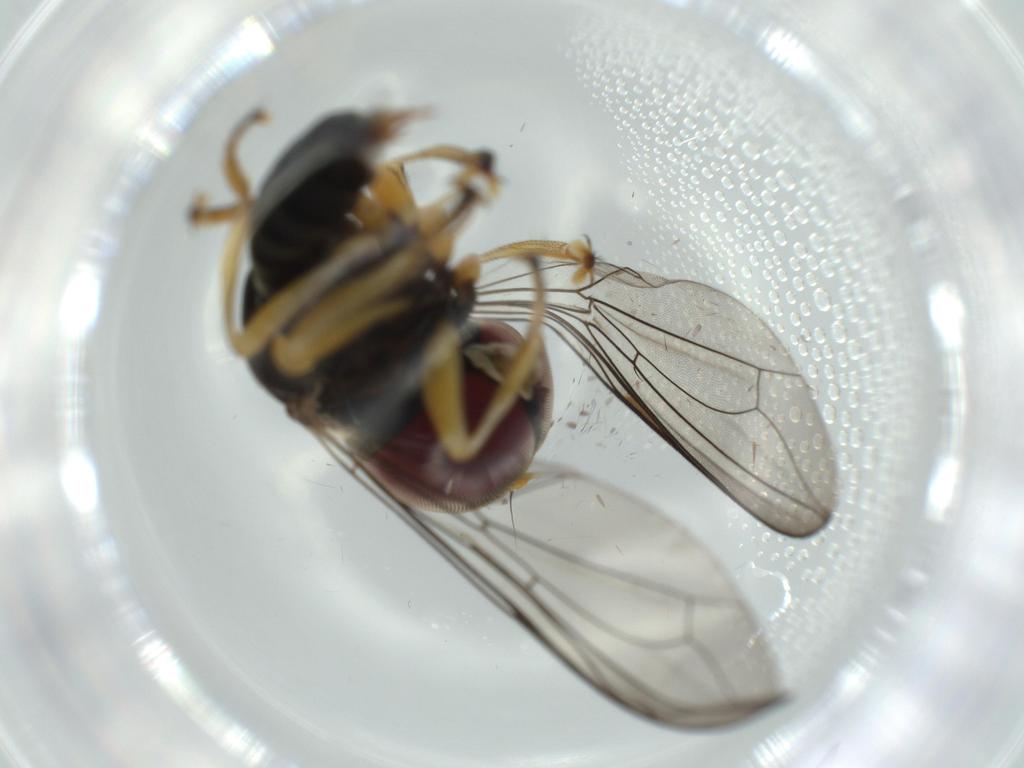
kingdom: Animalia
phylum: Arthropoda
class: Insecta
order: Diptera
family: Cecidomyiidae
